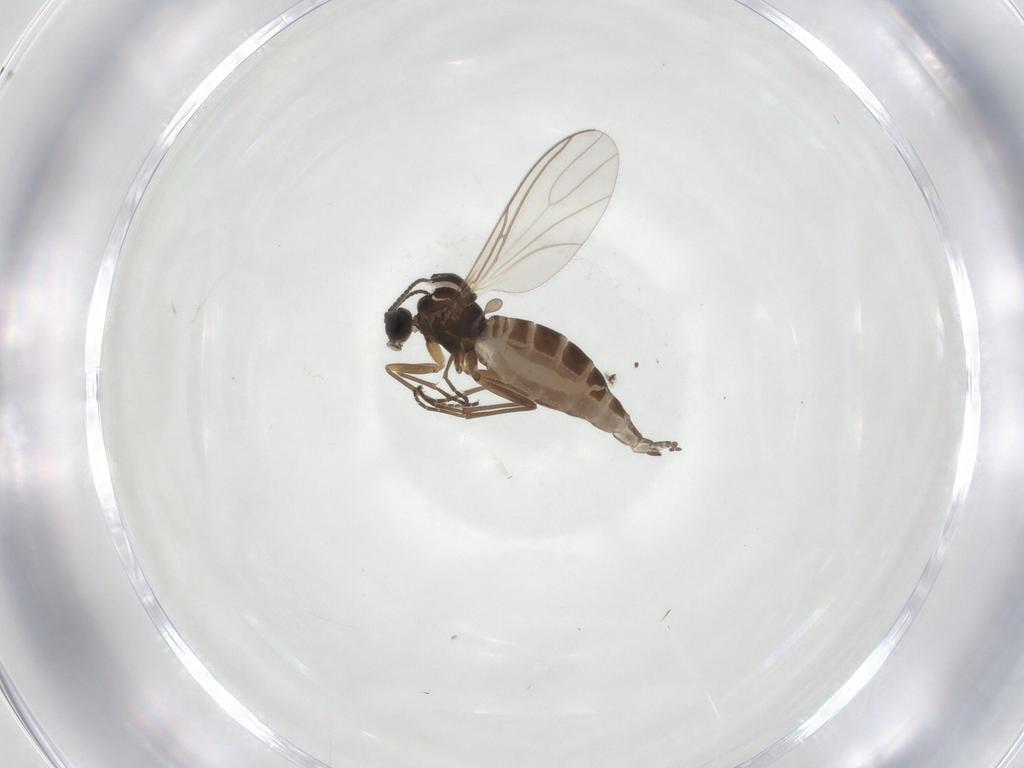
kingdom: Animalia
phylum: Arthropoda
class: Insecta
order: Diptera
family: Sciaridae
